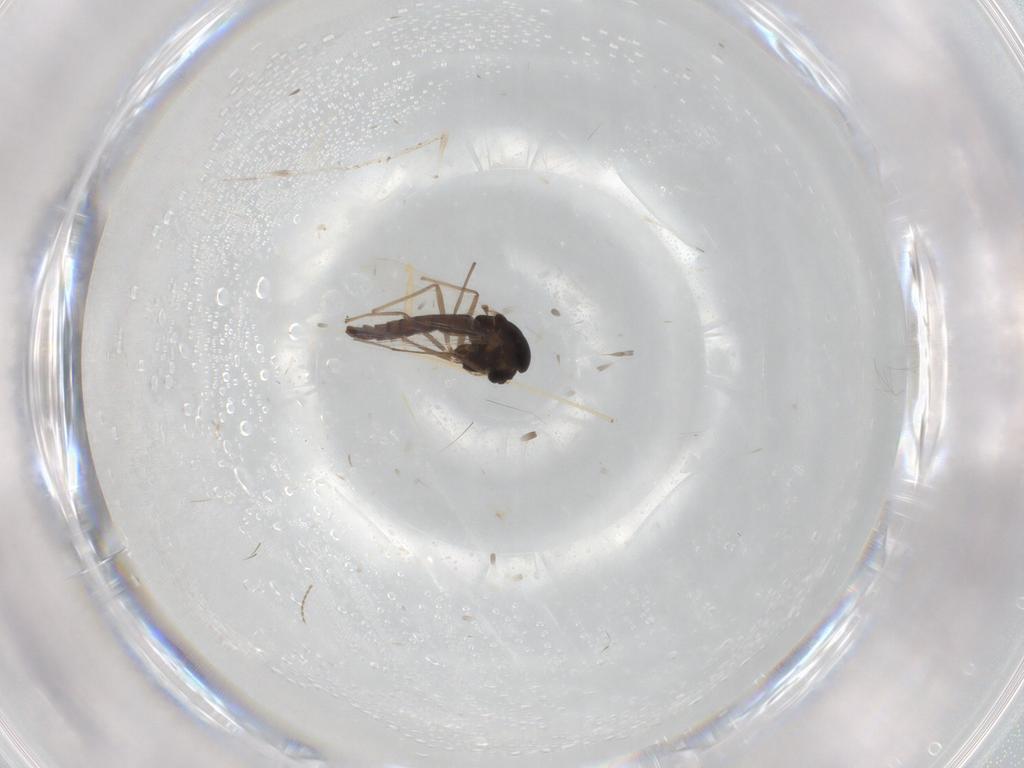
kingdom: Animalia
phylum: Arthropoda
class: Insecta
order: Diptera
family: Chironomidae
